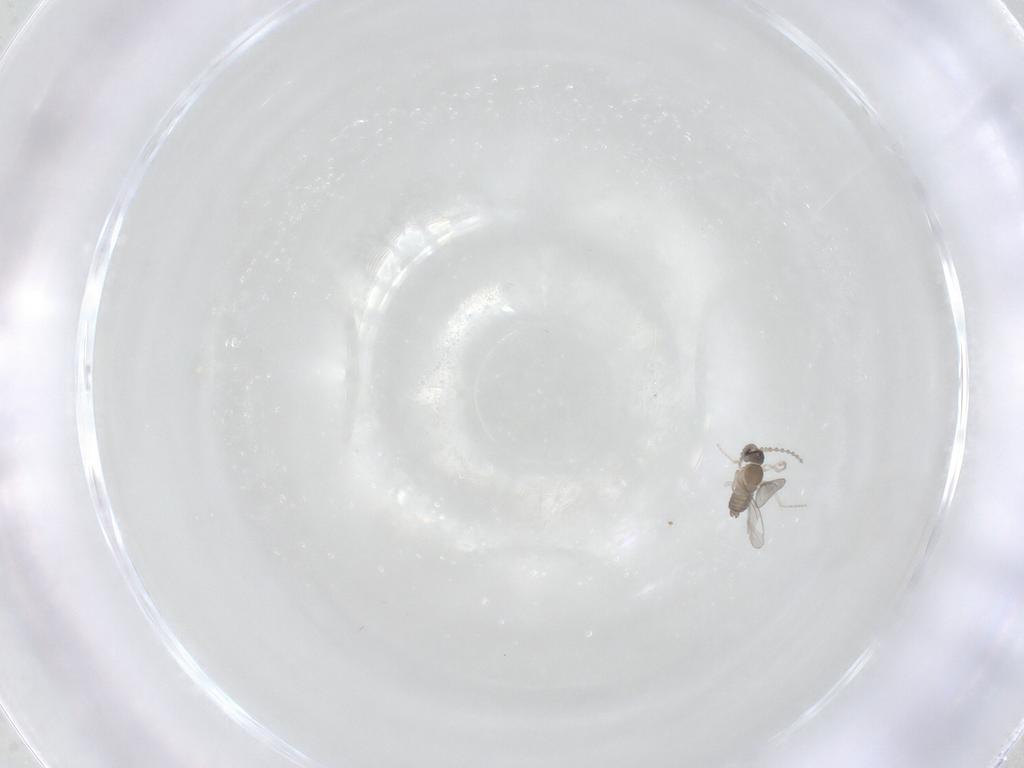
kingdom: Animalia
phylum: Arthropoda
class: Insecta
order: Diptera
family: Cecidomyiidae
